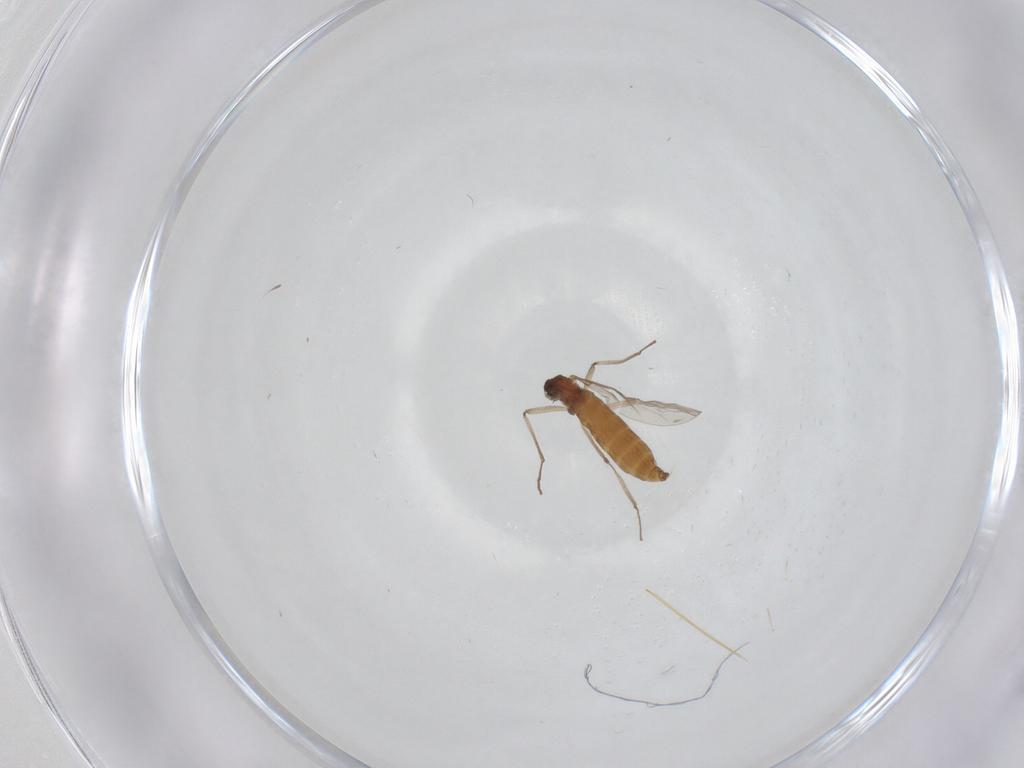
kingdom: Animalia
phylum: Arthropoda
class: Insecta
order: Diptera
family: Cecidomyiidae
